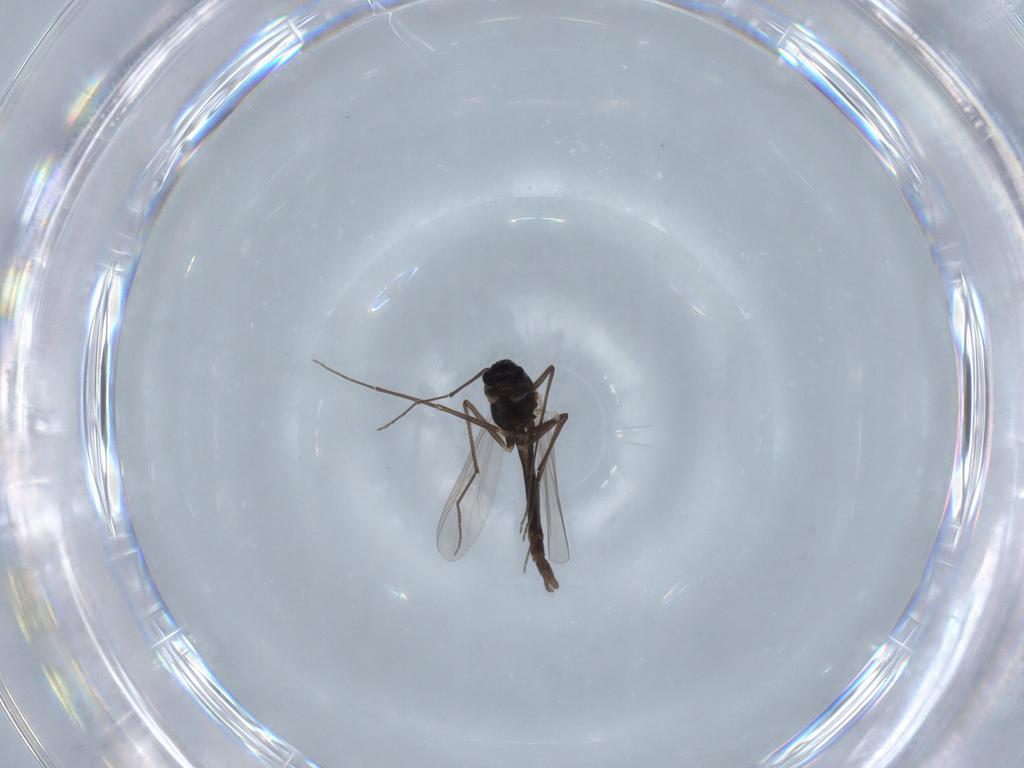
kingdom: Animalia
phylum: Arthropoda
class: Insecta
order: Diptera
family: Chironomidae
